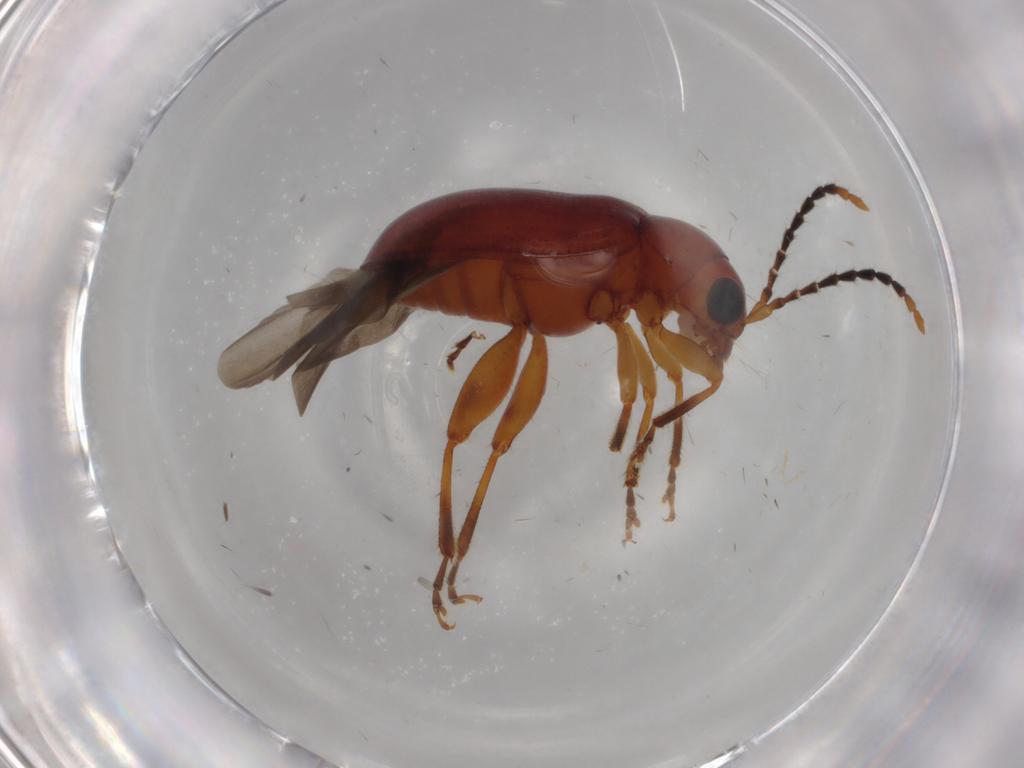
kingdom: Animalia
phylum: Arthropoda
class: Insecta
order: Coleoptera
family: Chrysomelidae
